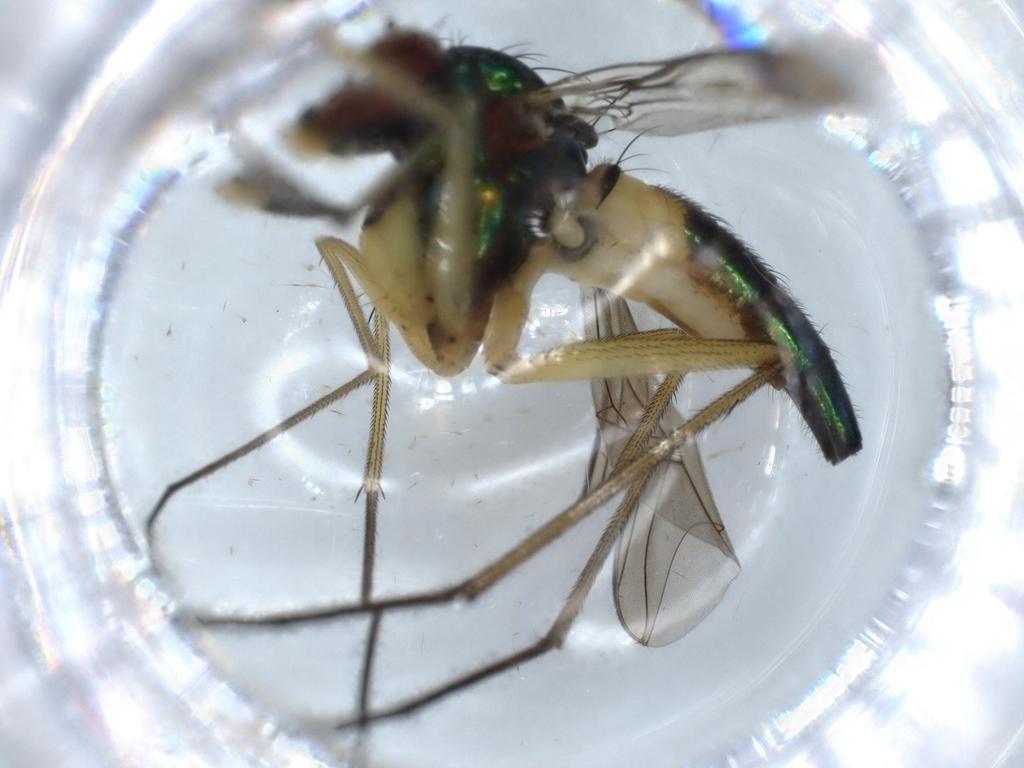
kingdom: Animalia
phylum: Arthropoda
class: Insecta
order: Diptera
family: Dolichopodidae
